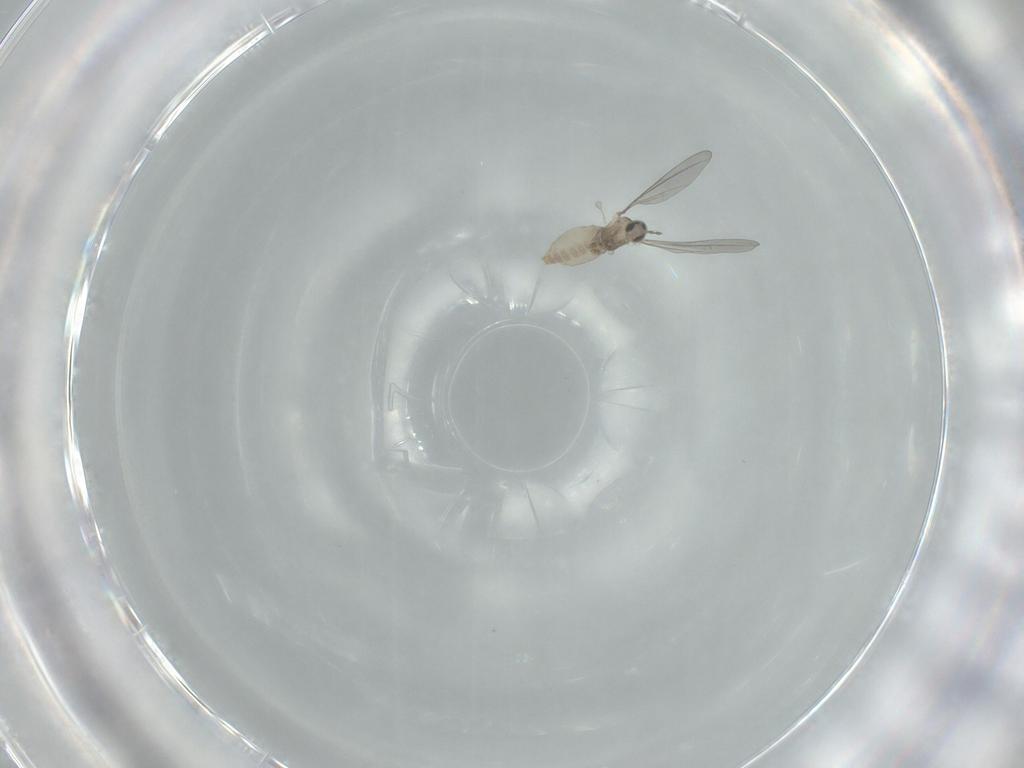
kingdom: Animalia
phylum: Arthropoda
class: Insecta
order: Diptera
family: Cecidomyiidae
